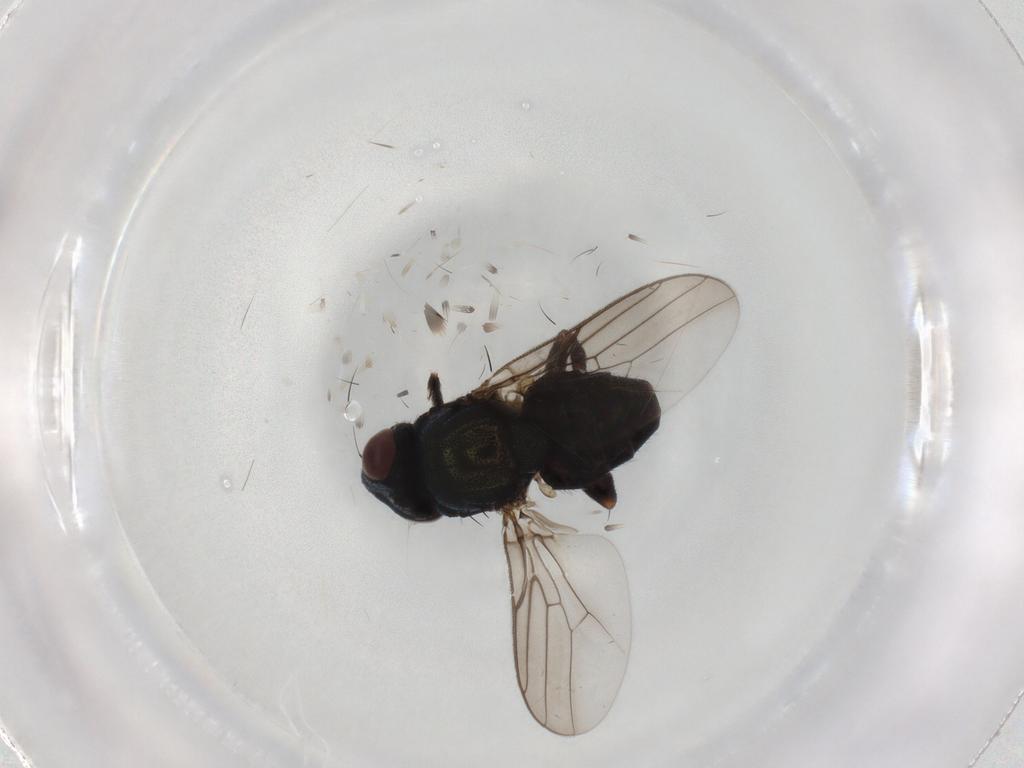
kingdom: Animalia
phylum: Arthropoda
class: Insecta
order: Diptera
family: Chloropidae
